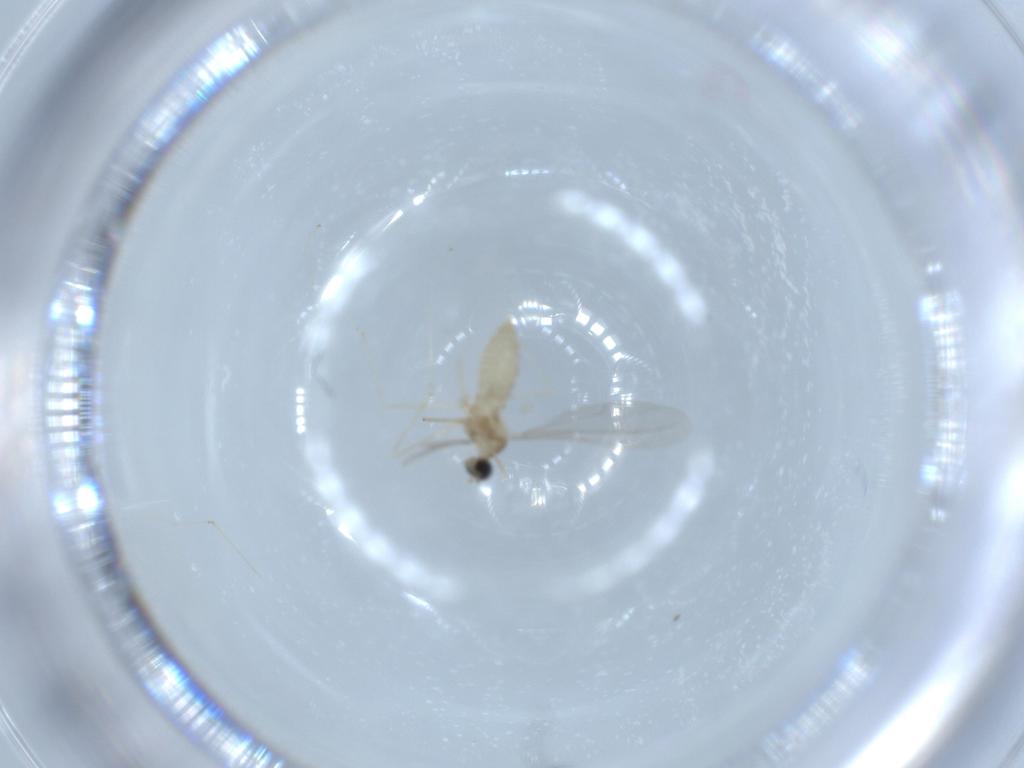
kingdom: Animalia
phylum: Arthropoda
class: Insecta
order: Diptera
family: Cecidomyiidae
